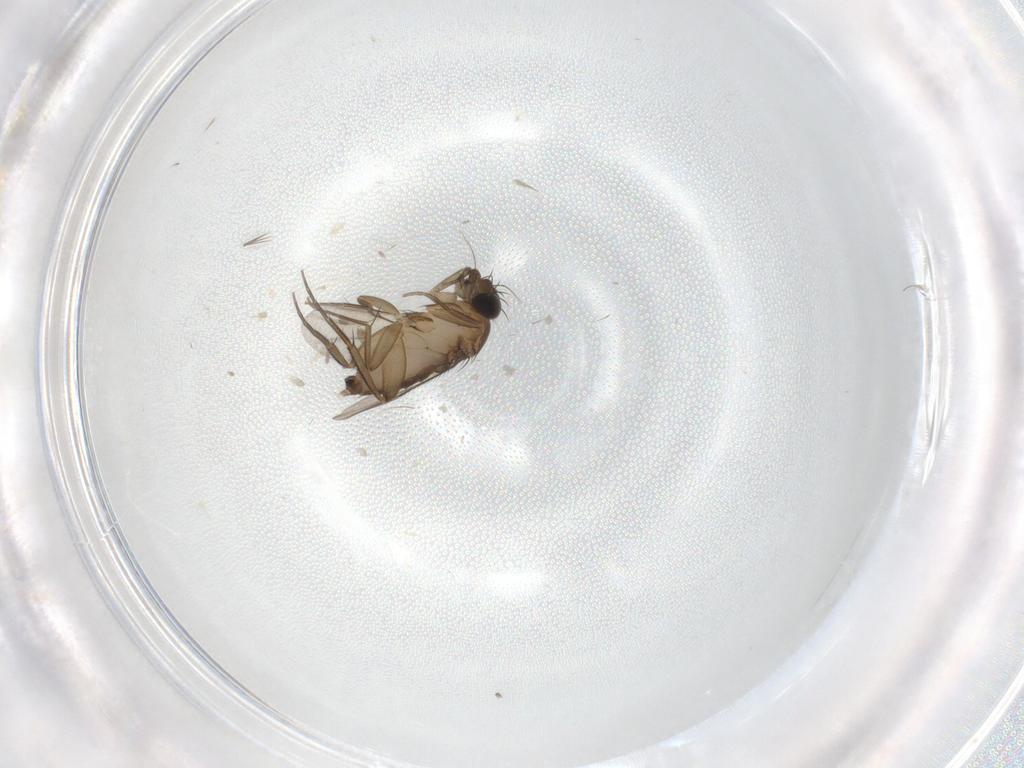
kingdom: Animalia
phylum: Arthropoda
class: Insecta
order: Diptera
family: Phoridae
